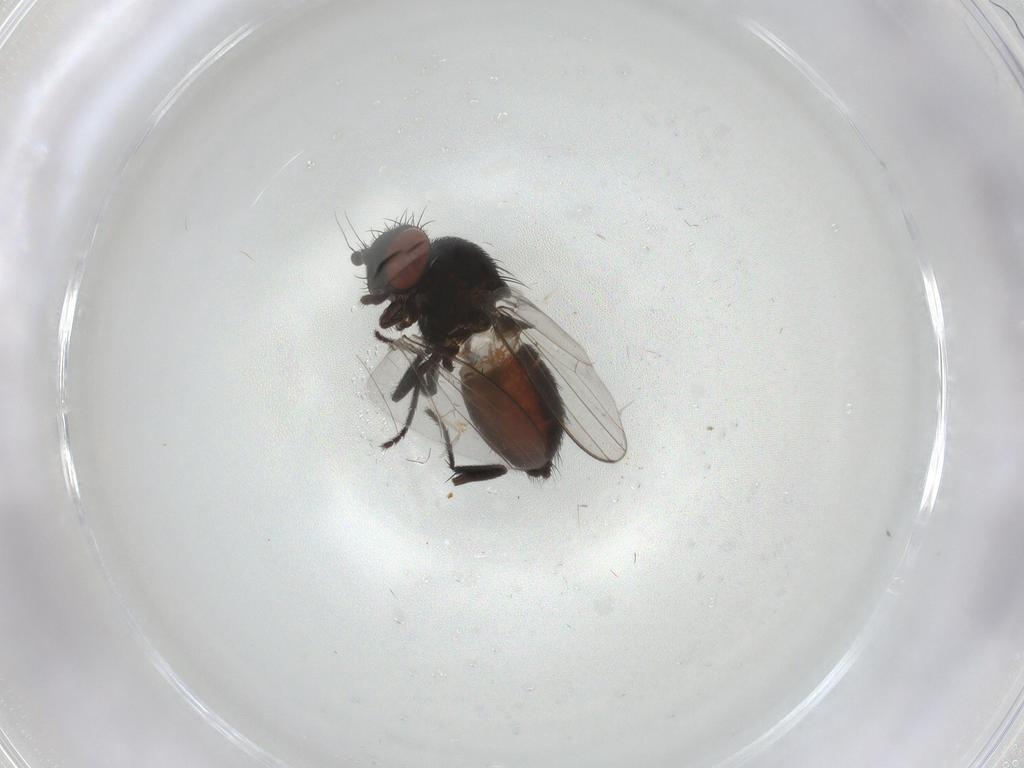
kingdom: Animalia
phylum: Arthropoda
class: Insecta
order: Diptera
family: Milichiidae
